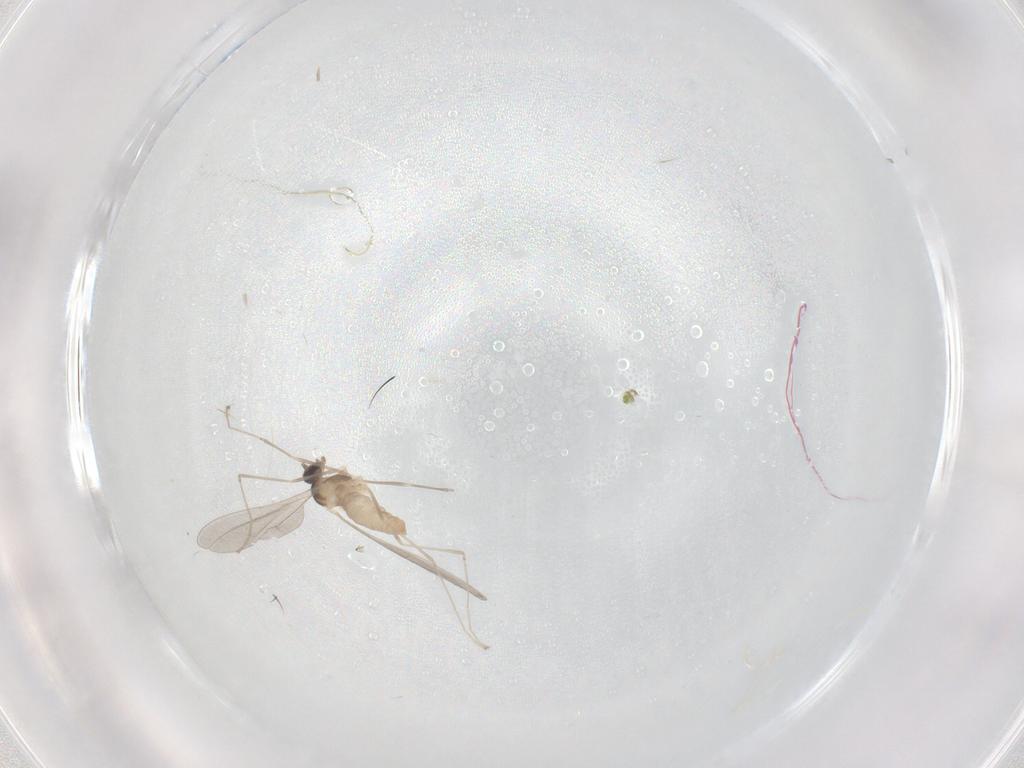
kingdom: Animalia
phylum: Arthropoda
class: Insecta
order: Diptera
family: Cecidomyiidae
